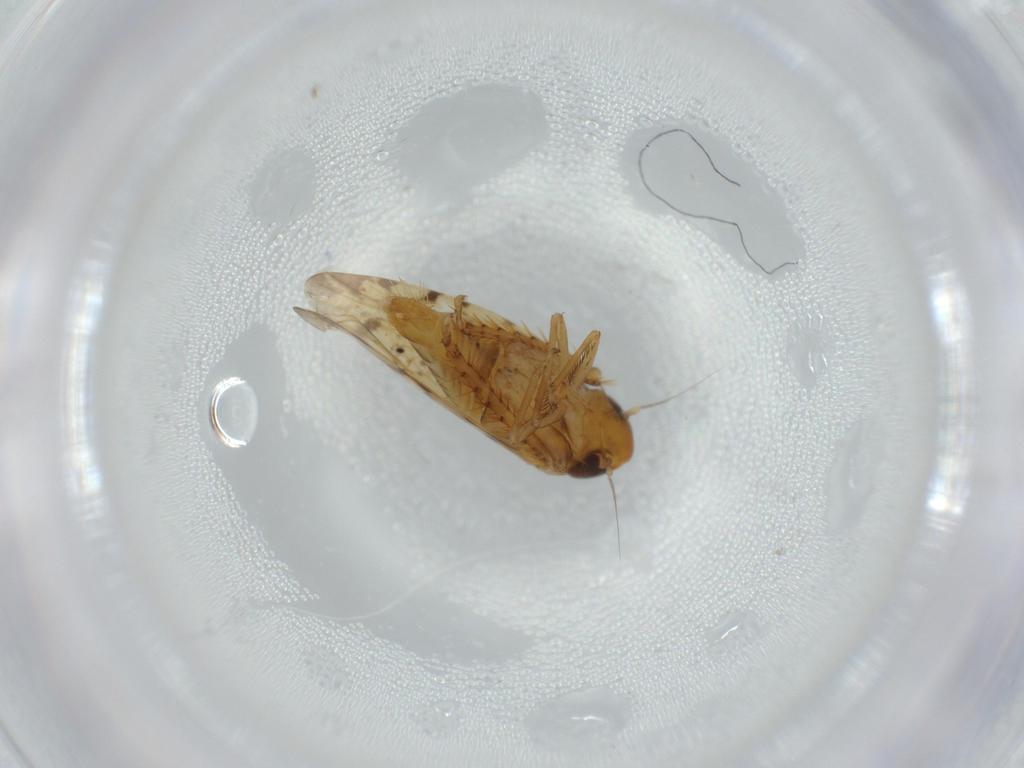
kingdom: Animalia
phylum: Arthropoda
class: Insecta
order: Hemiptera
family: Cicadellidae
